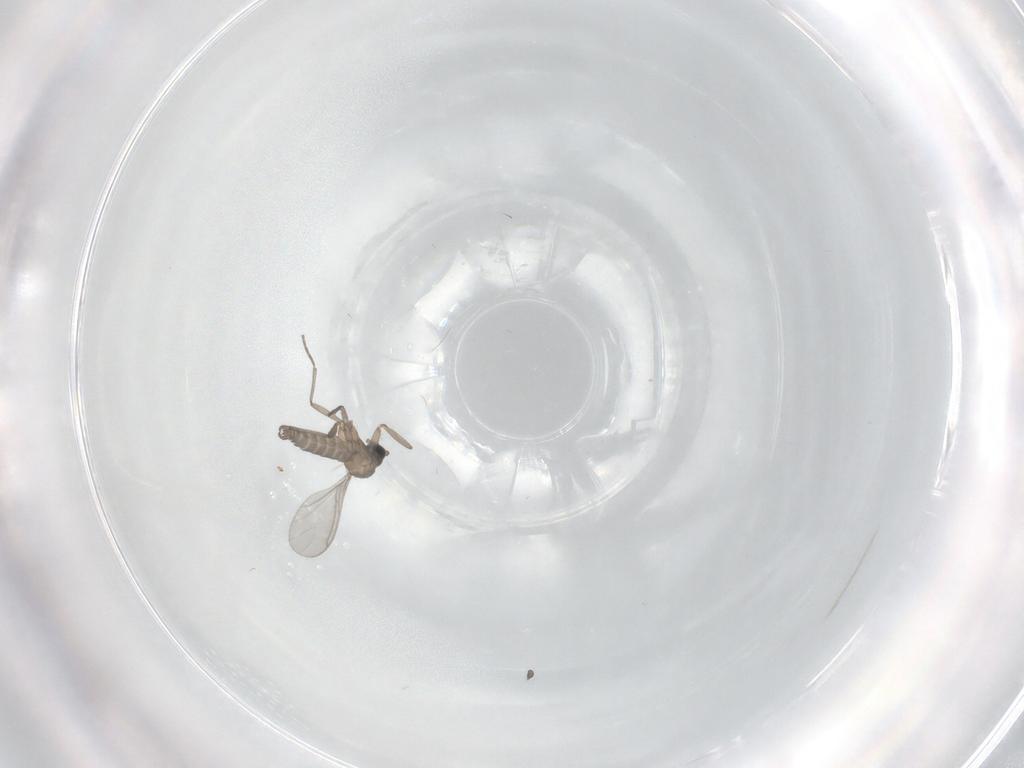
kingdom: Animalia
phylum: Arthropoda
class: Insecta
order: Diptera
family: Sciaridae
